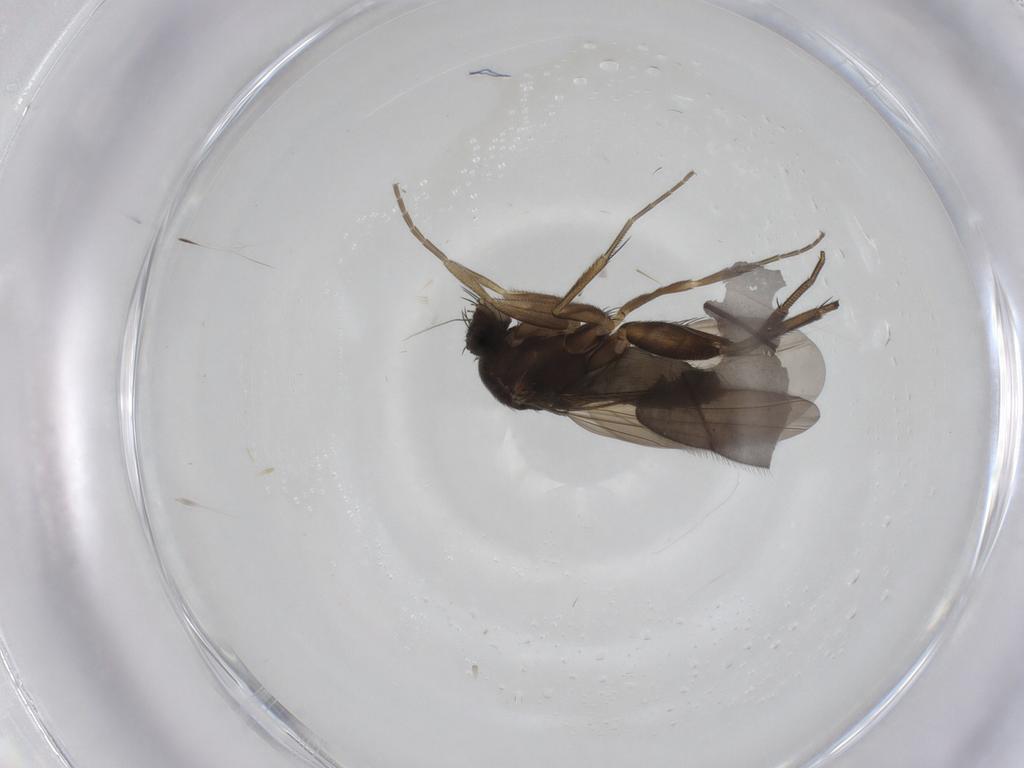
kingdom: Animalia
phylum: Arthropoda
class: Insecta
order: Diptera
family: Phoridae
